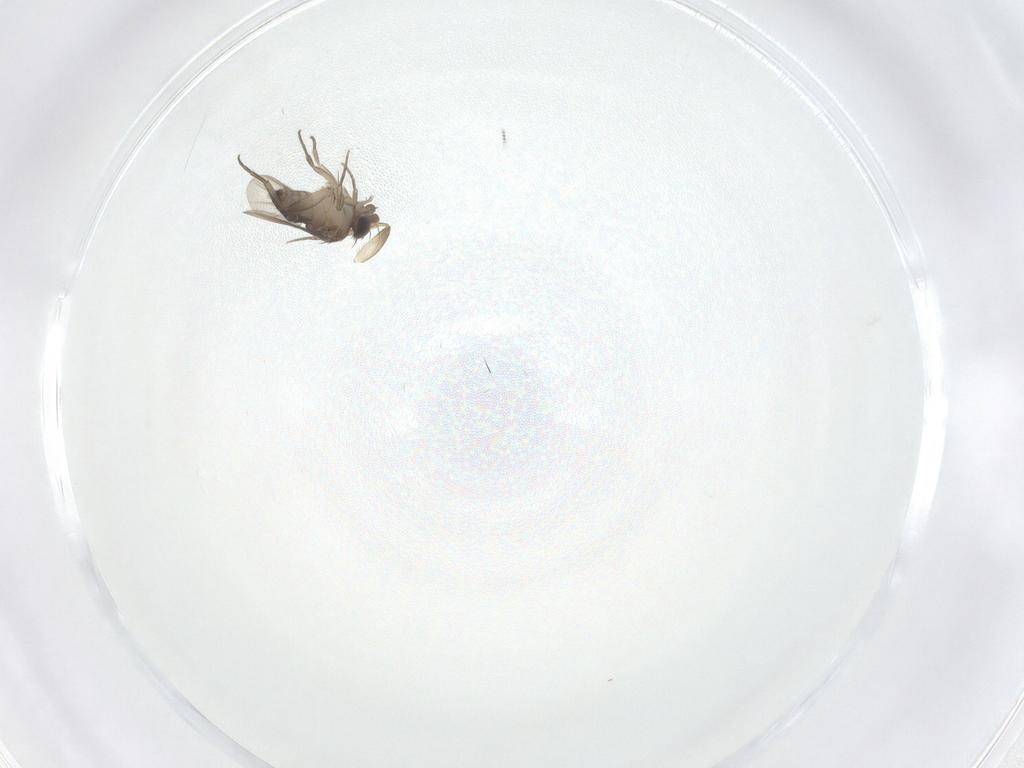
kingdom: Animalia
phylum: Arthropoda
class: Insecta
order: Diptera
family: Phoridae
